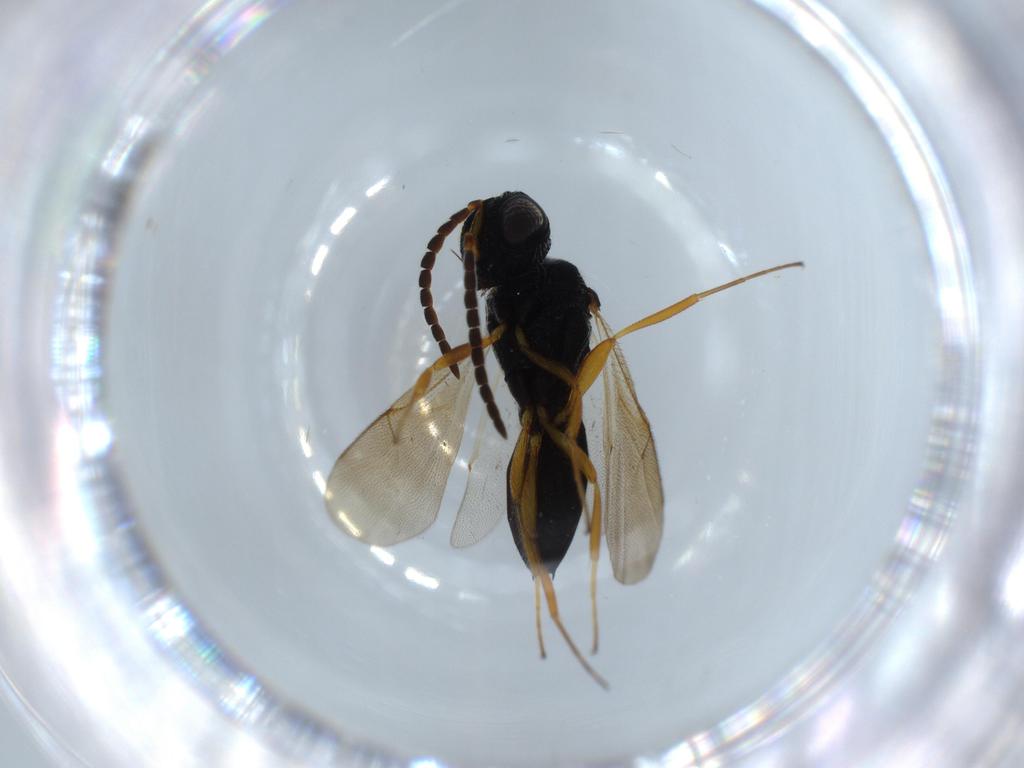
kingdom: Animalia
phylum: Arthropoda
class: Insecta
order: Hymenoptera
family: Scelionidae
